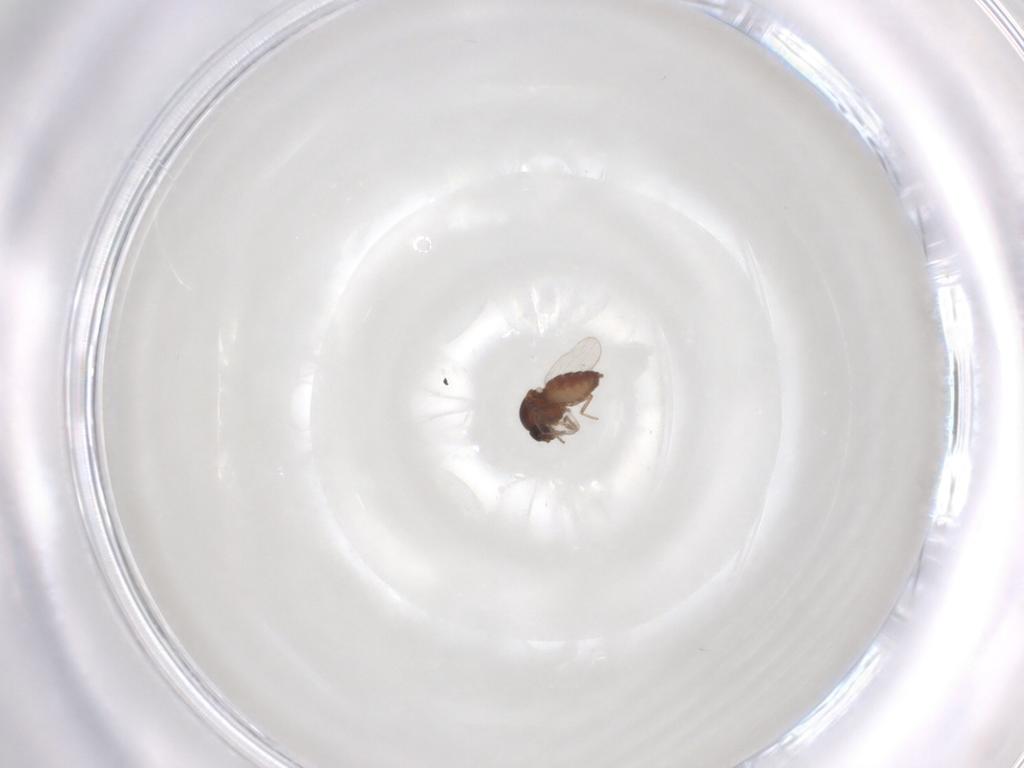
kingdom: Animalia
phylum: Arthropoda
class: Insecta
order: Diptera
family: Ceratopogonidae
